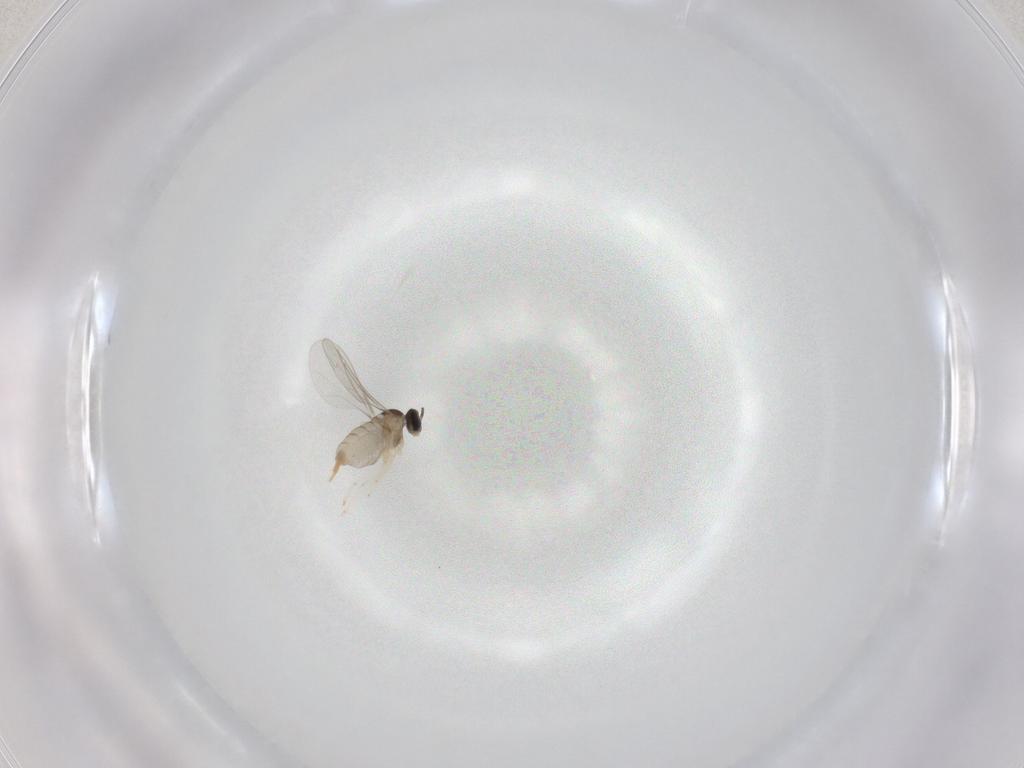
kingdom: Animalia
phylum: Arthropoda
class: Insecta
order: Diptera
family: Cecidomyiidae
